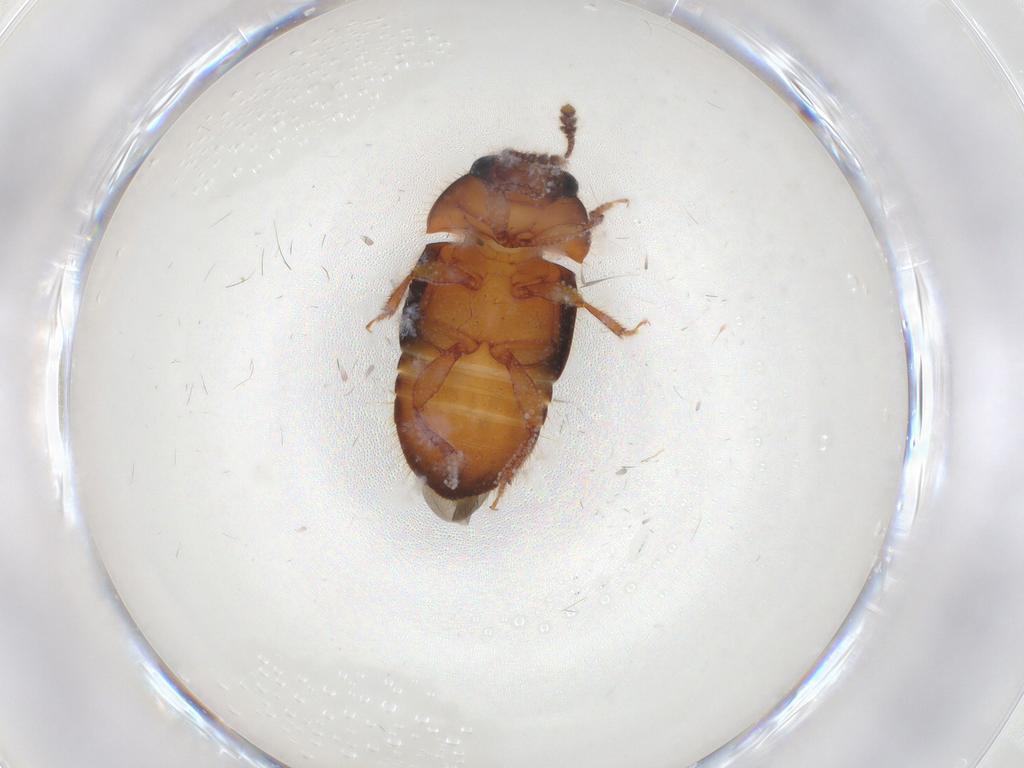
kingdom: Animalia
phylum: Arthropoda
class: Insecta
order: Coleoptera
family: Nitidulidae
